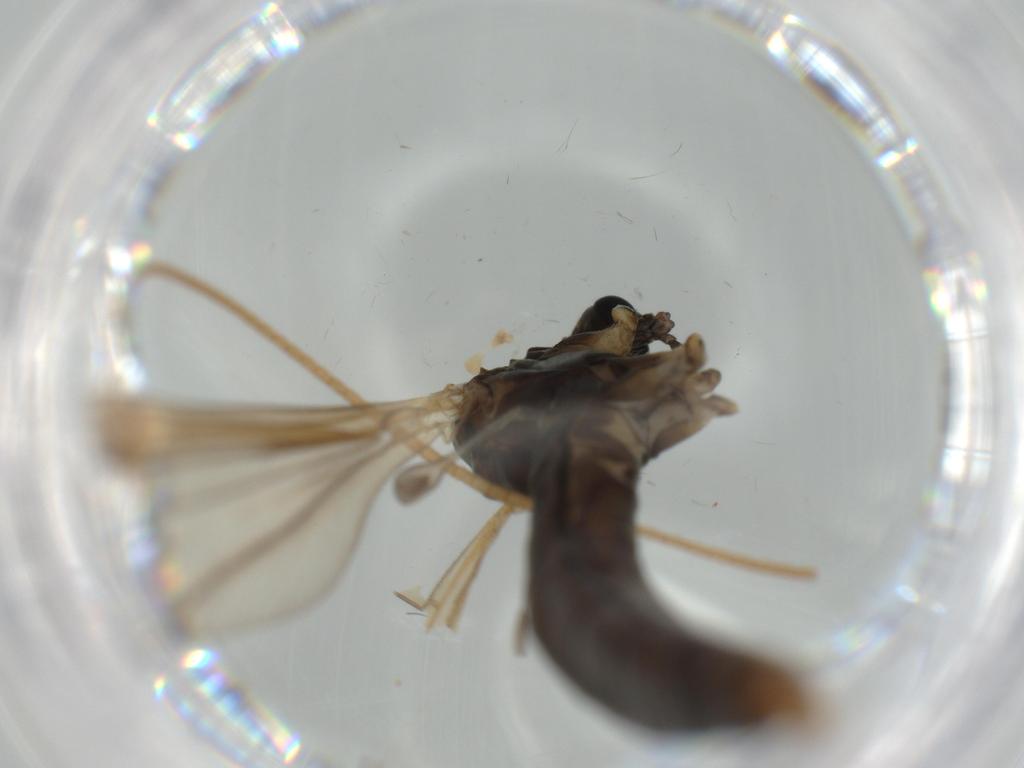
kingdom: Animalia
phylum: Arthropoda
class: Insecta
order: Diptera
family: Limoniidae
